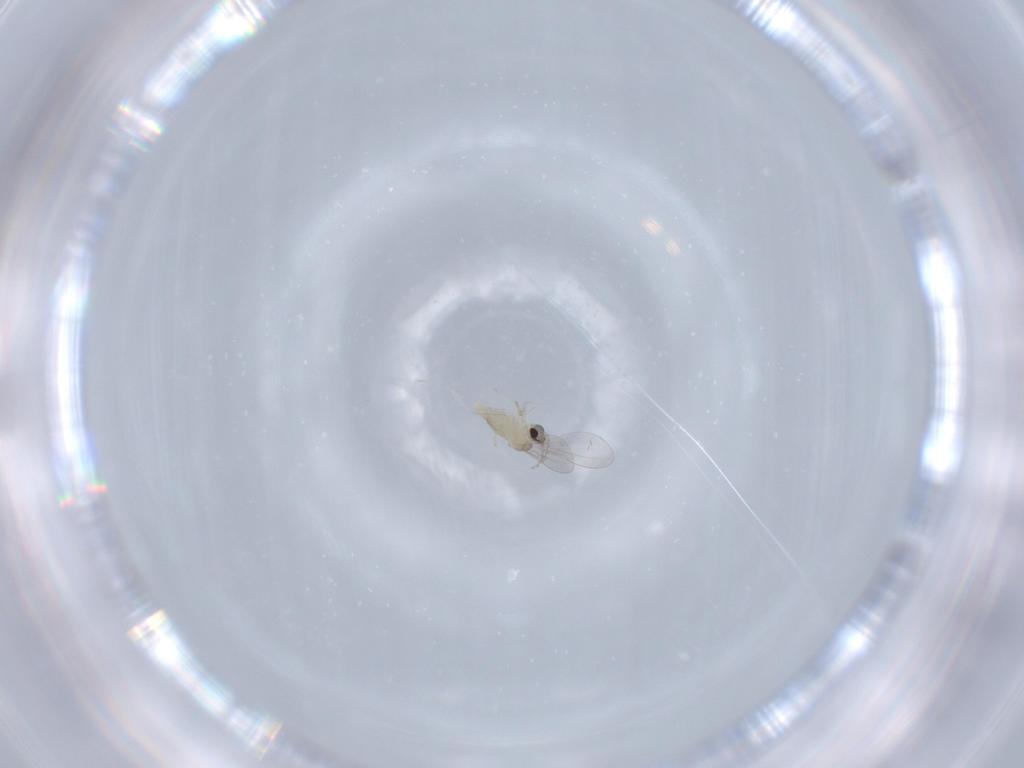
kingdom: Animalia
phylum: Arthropoda
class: Insecta
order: Diptera
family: Cecidomyiidae
